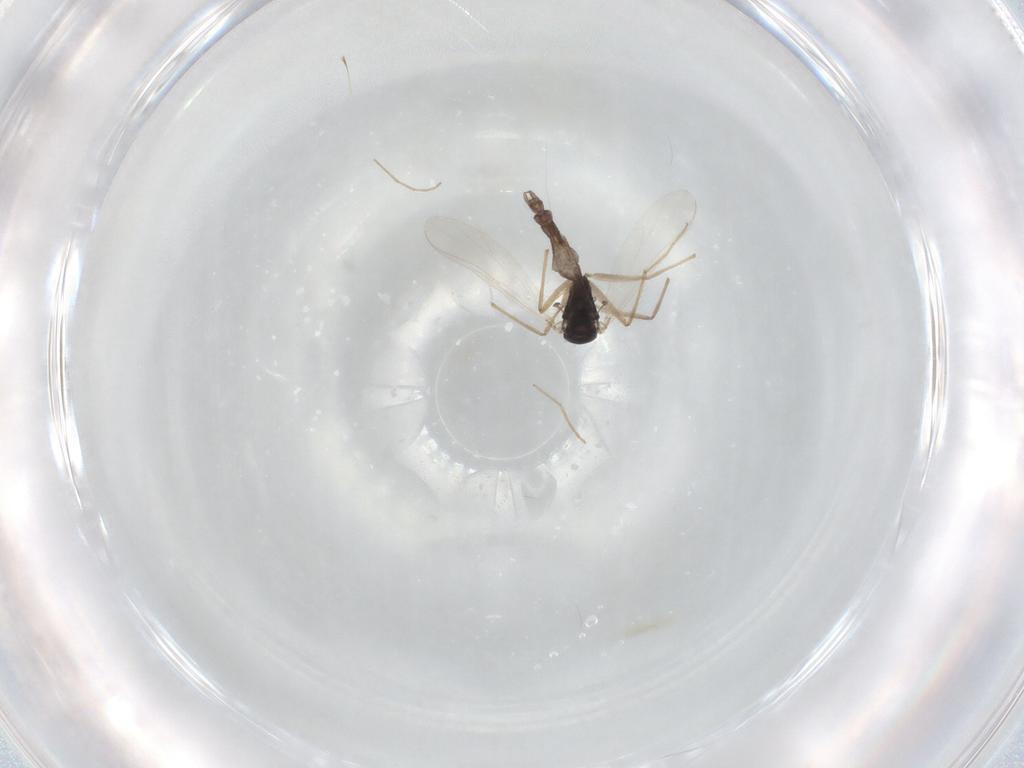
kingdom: Animalia
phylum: Arthropoda
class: Insecta
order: Diptera
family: Chironomidae
